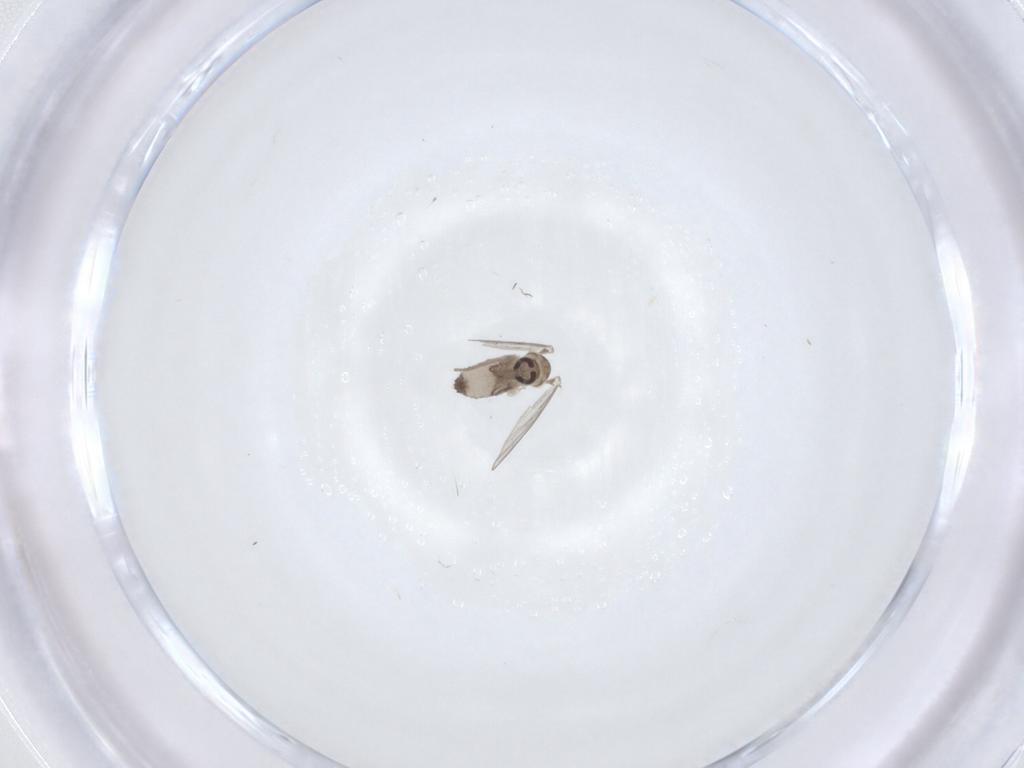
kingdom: Animalia
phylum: Arthropoda
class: Insecta
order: Diptera
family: Psychodidae
